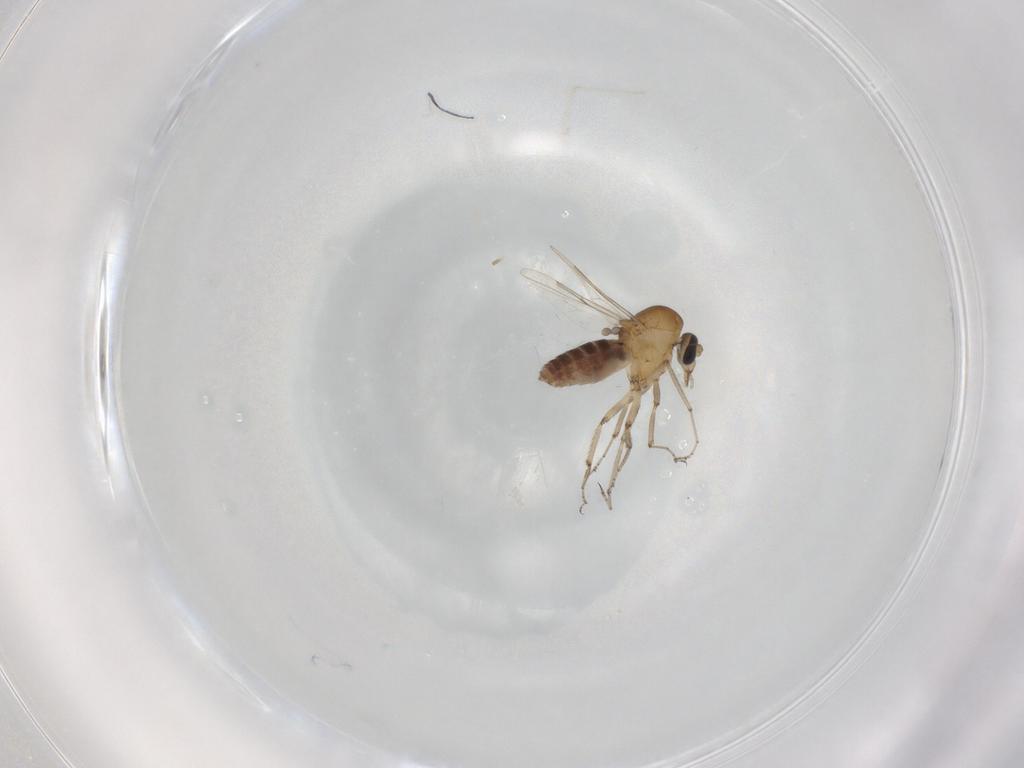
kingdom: Animalia
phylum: Arthropoda
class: Insecta
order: Diptera
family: Ceratopogonidae
